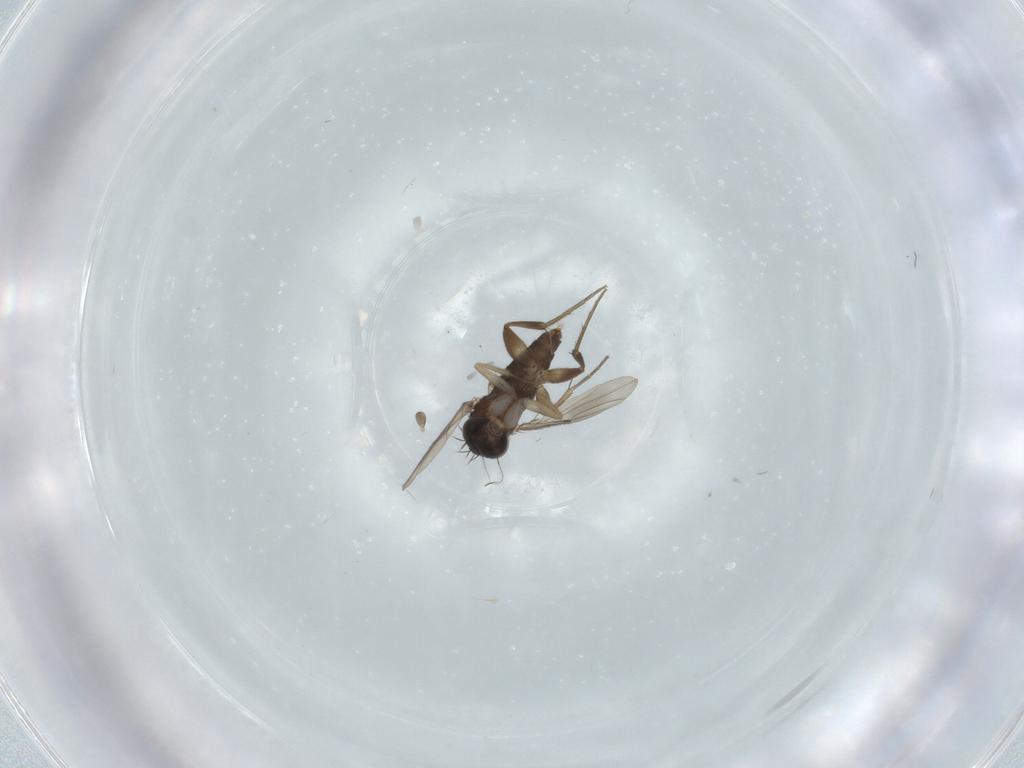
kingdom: Animalia
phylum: Arthropoda
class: Insecta
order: Diptera
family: Phoridae
